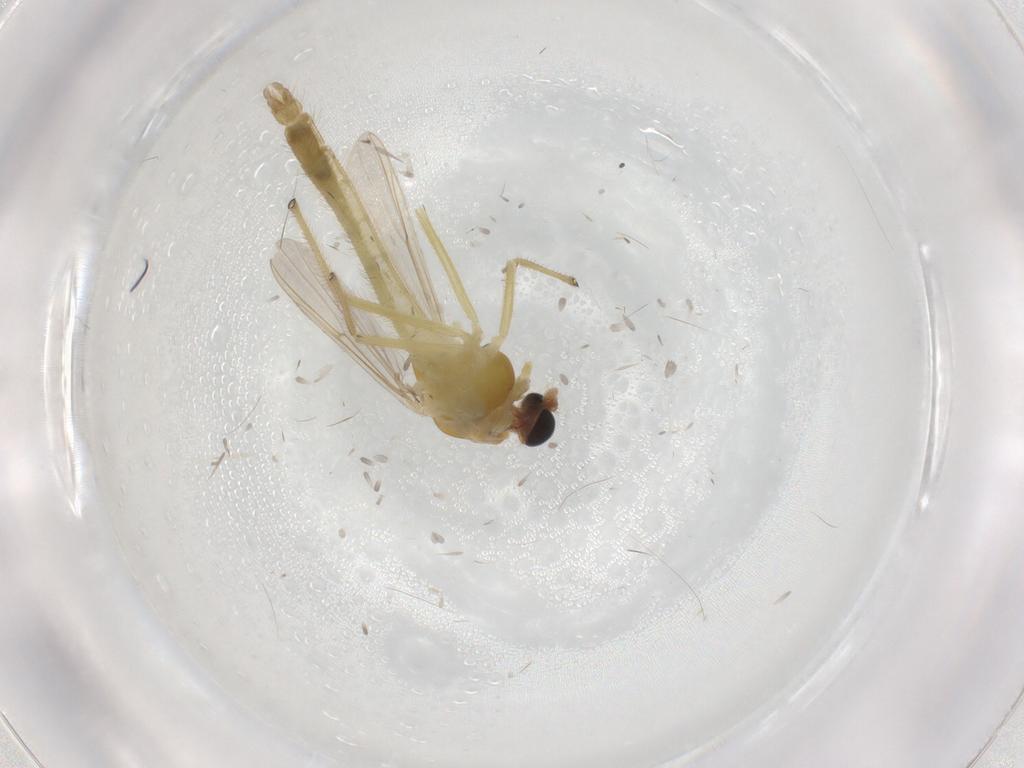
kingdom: Animalia
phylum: Arthropoda
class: Insecta
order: Diptera
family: Chironomidae
